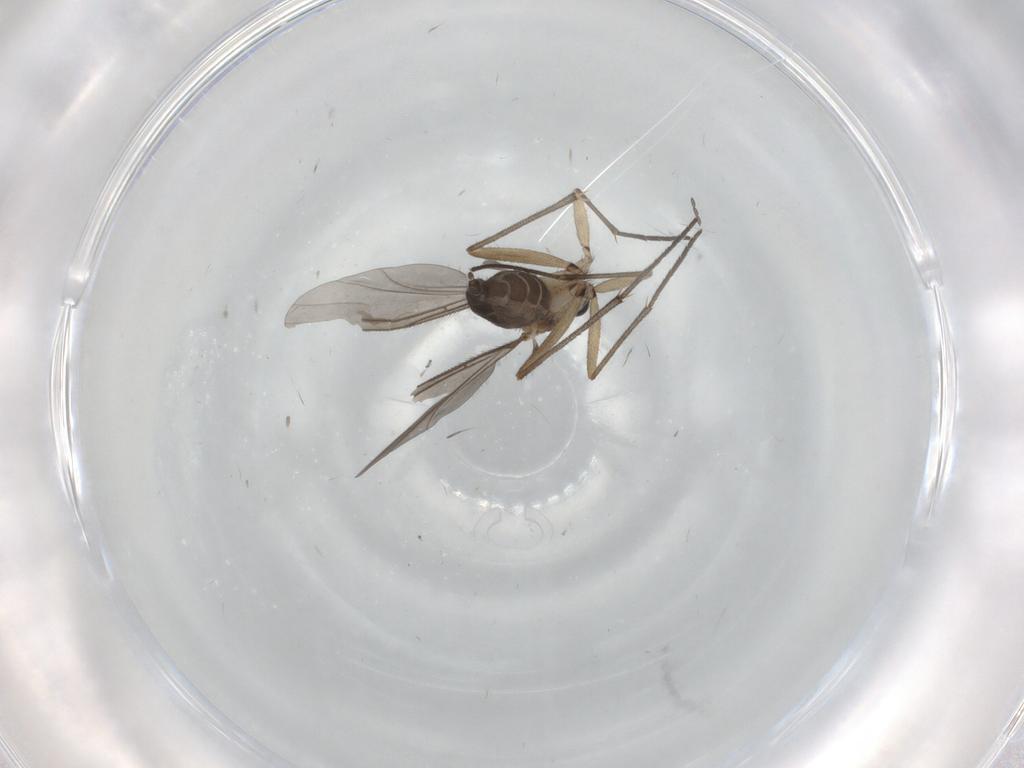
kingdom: Animalia
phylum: Arthropoda
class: Insecta
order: Diptera
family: Sciaridae
